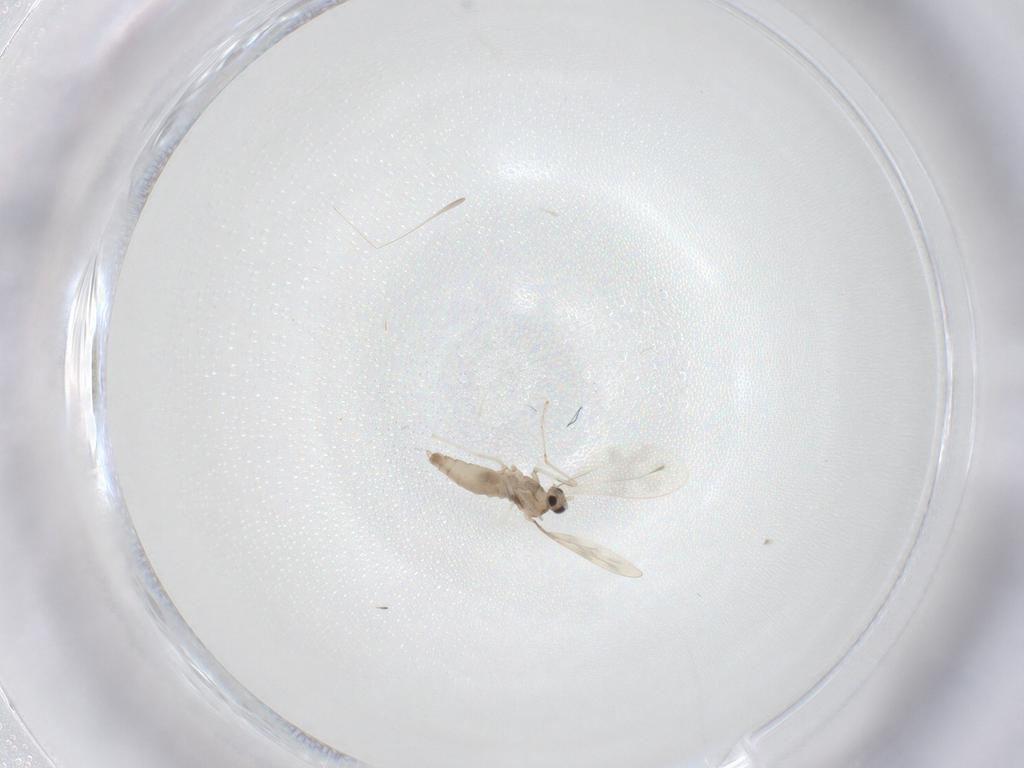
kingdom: Animalia
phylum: Arthropoda
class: Insecta
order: Diptera
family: Cecidomyiidae
